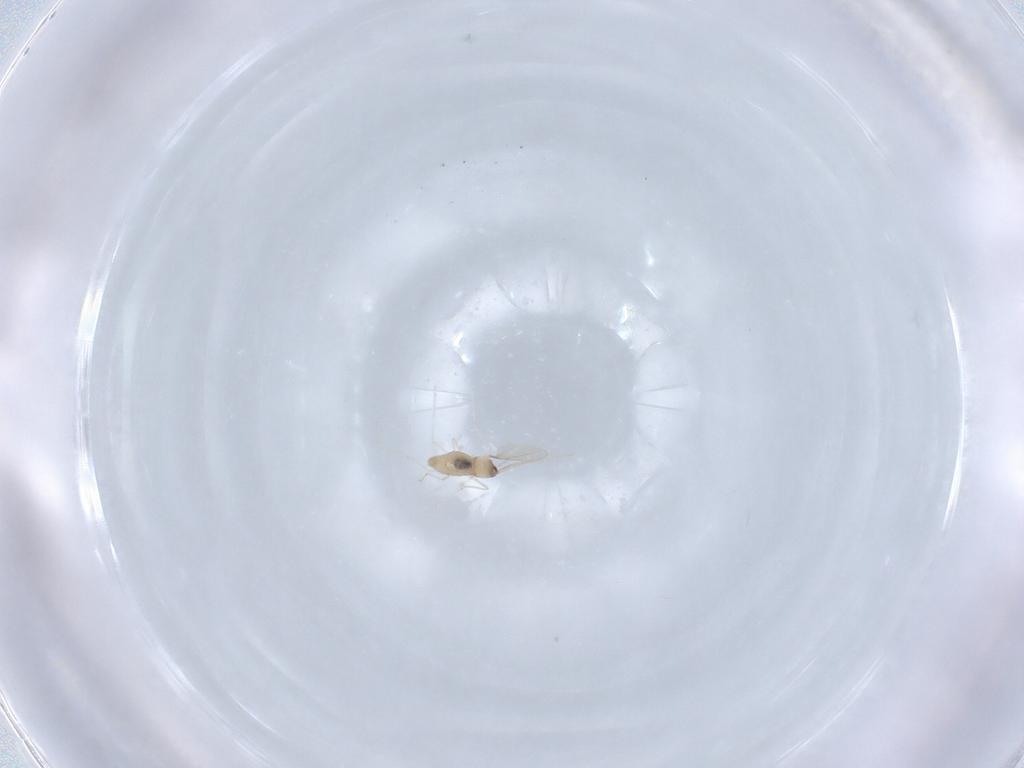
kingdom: Animalia
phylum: Arthropoda
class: Insecta
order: Diptera
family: Cecidomyiidae
